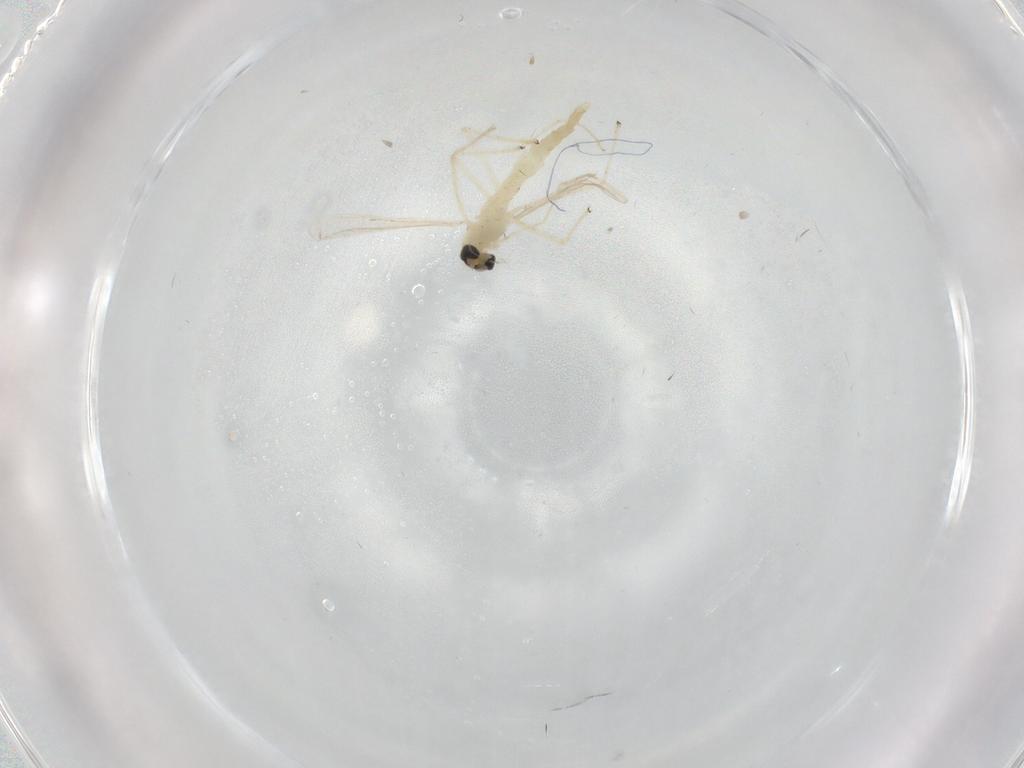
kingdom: Animalia
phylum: Arthropoda
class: Insecta
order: Diptera
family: Chironomidae
